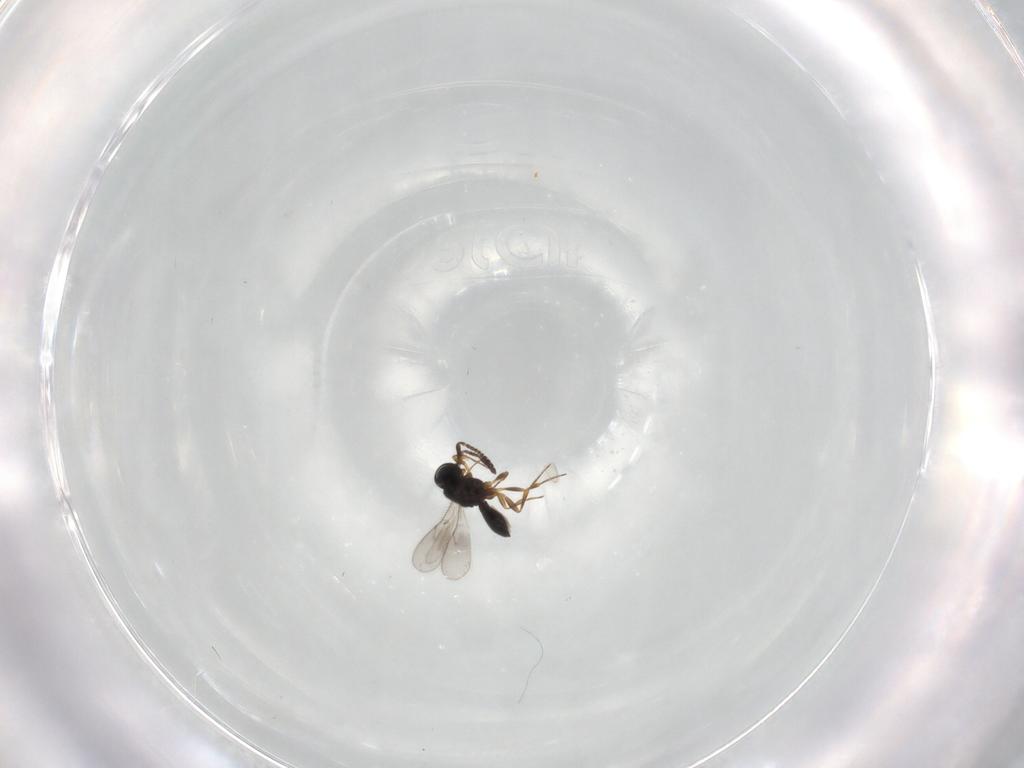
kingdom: Animalia
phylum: Arthropoda
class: Insecta
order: Hymenoptera
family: Scelionidae
